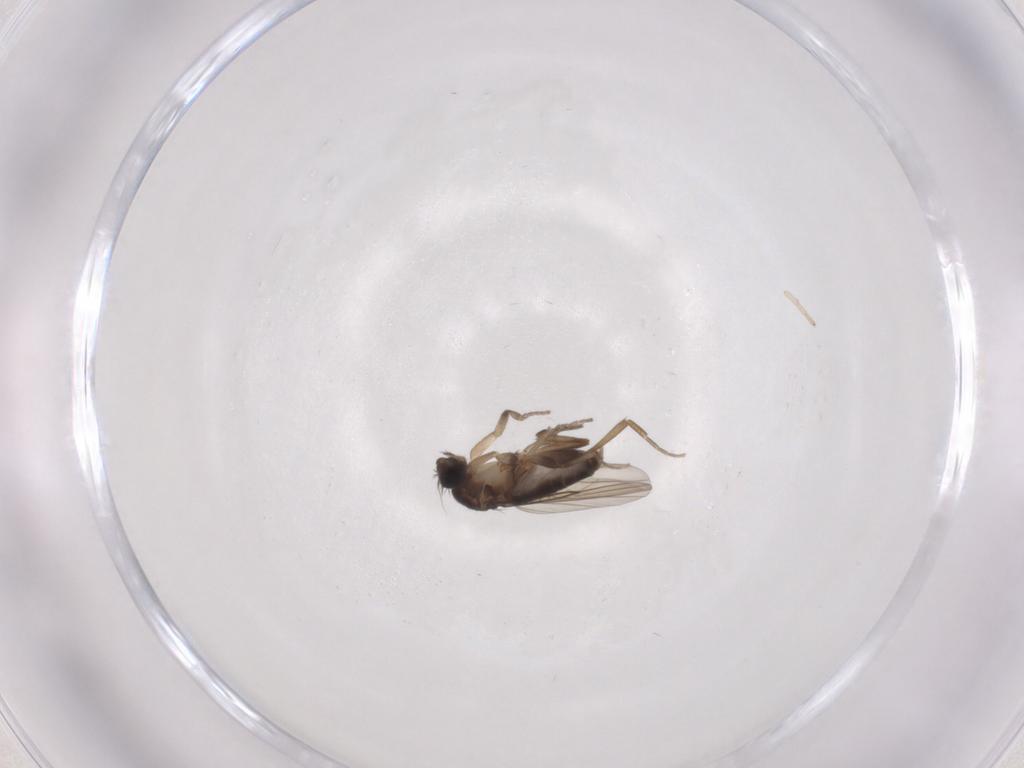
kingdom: Animalia
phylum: Arthropoda
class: Insecta
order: Diptera
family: Phoridae
